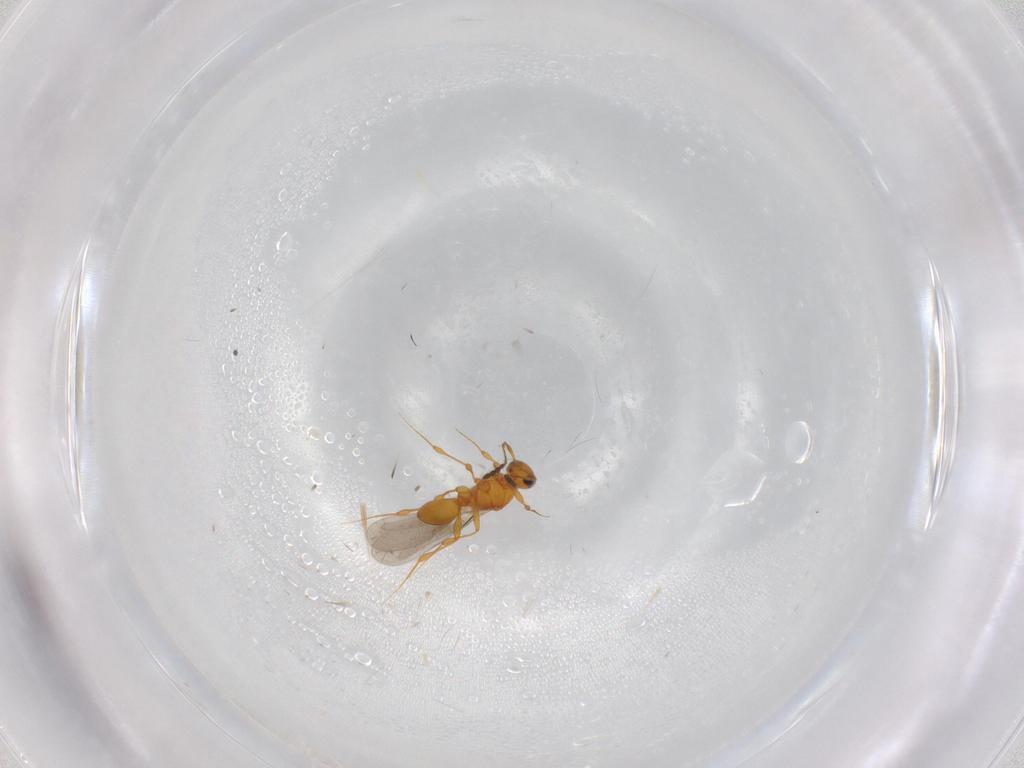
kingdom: Animalia
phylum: Arthropoda
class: Insecta
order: Hymenoptera
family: Platygastridae
